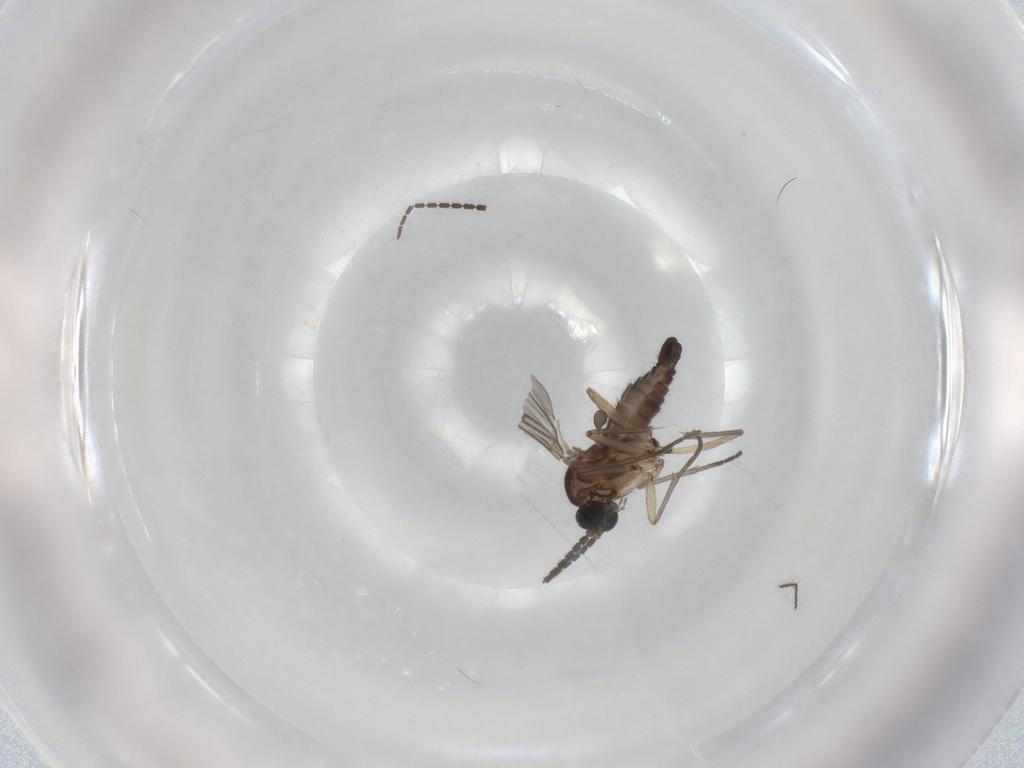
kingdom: Animalia
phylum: Arthropoda
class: Insecta
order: Diptera
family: Sciaridae
